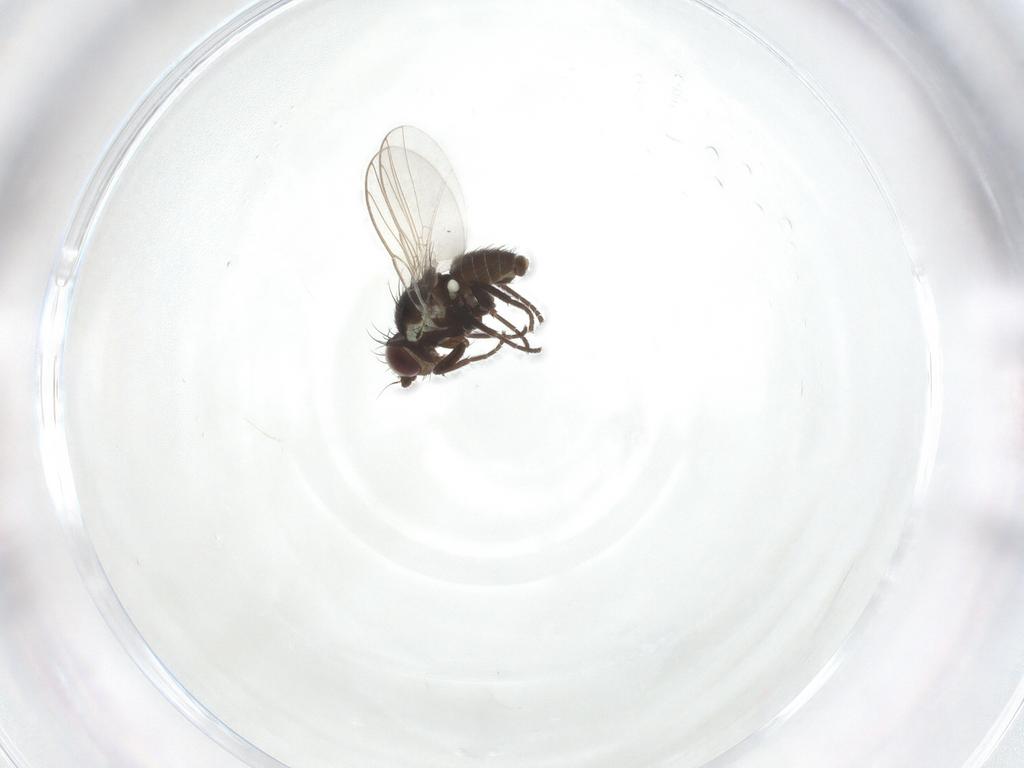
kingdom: Animalia
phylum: Arthropoda
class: Insecta
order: Diptera
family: Agromyzidae
